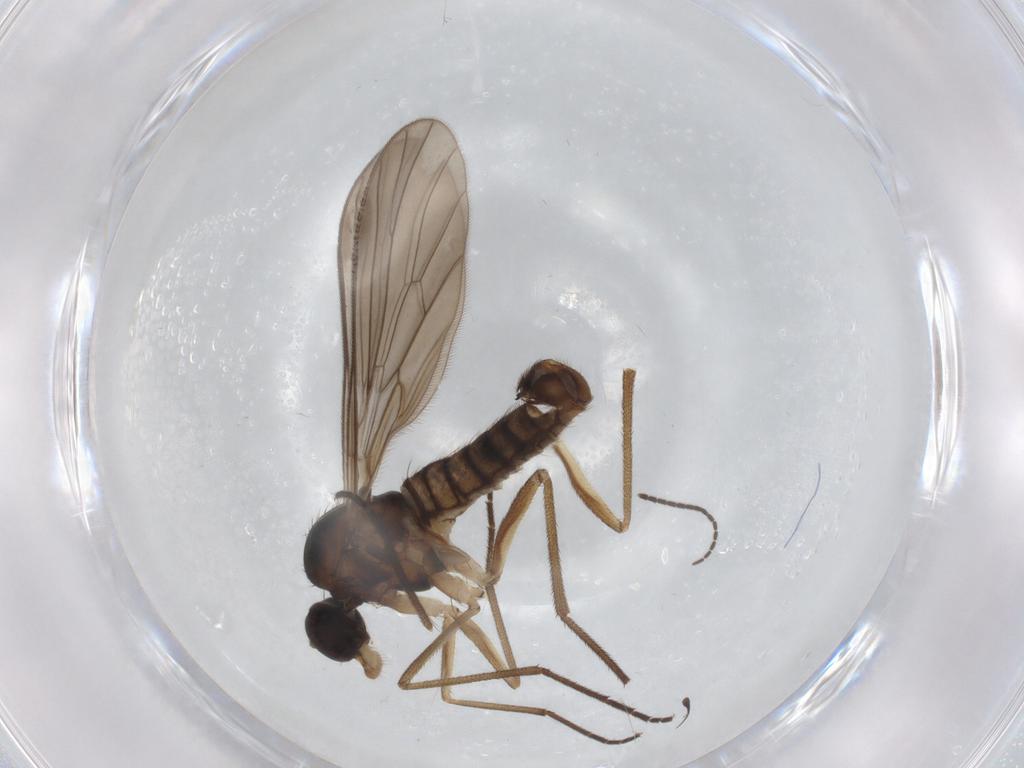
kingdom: Animalia
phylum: Arthropoda
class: Insecta
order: Diptera
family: Hybotidae
